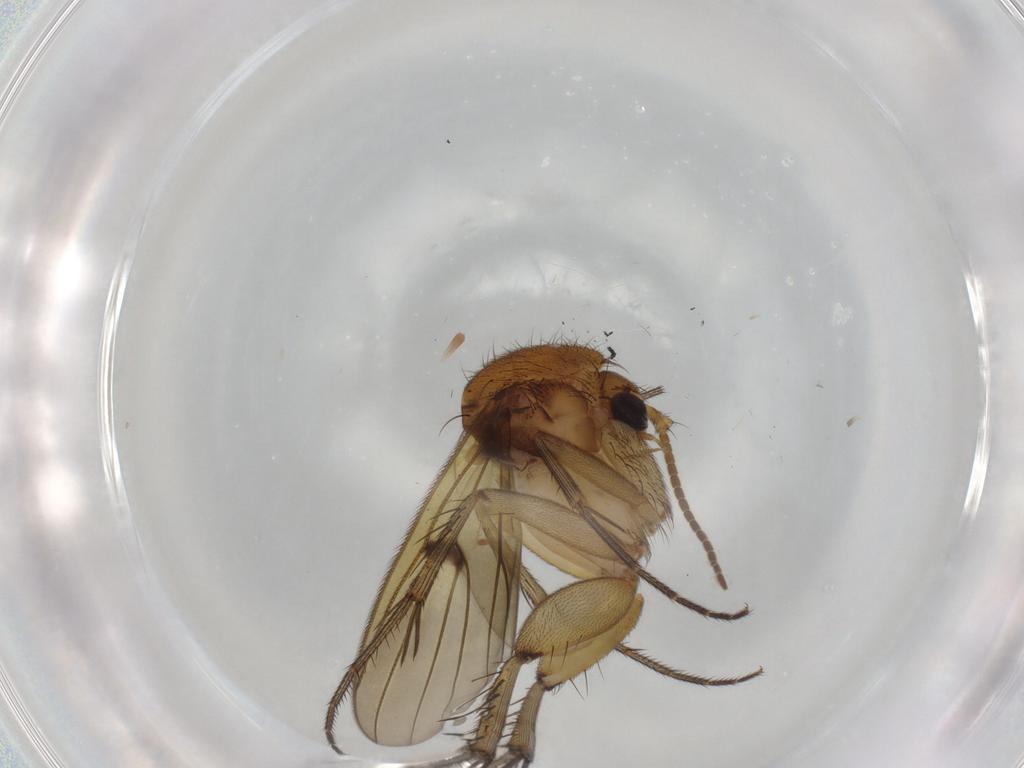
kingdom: Animalia
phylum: Arthropoda
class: Insecta
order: Diptera
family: Mycetophilidae
